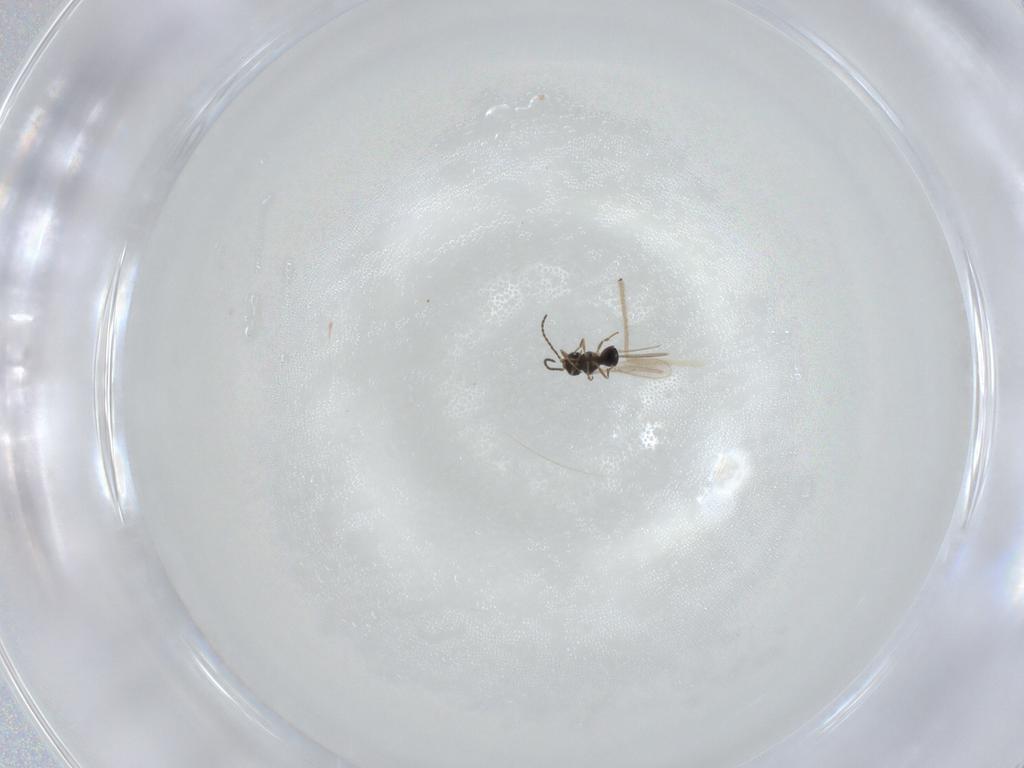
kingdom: Animalia
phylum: Arthropoda
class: Insecta
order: Hymenoptera
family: Scelionidae
